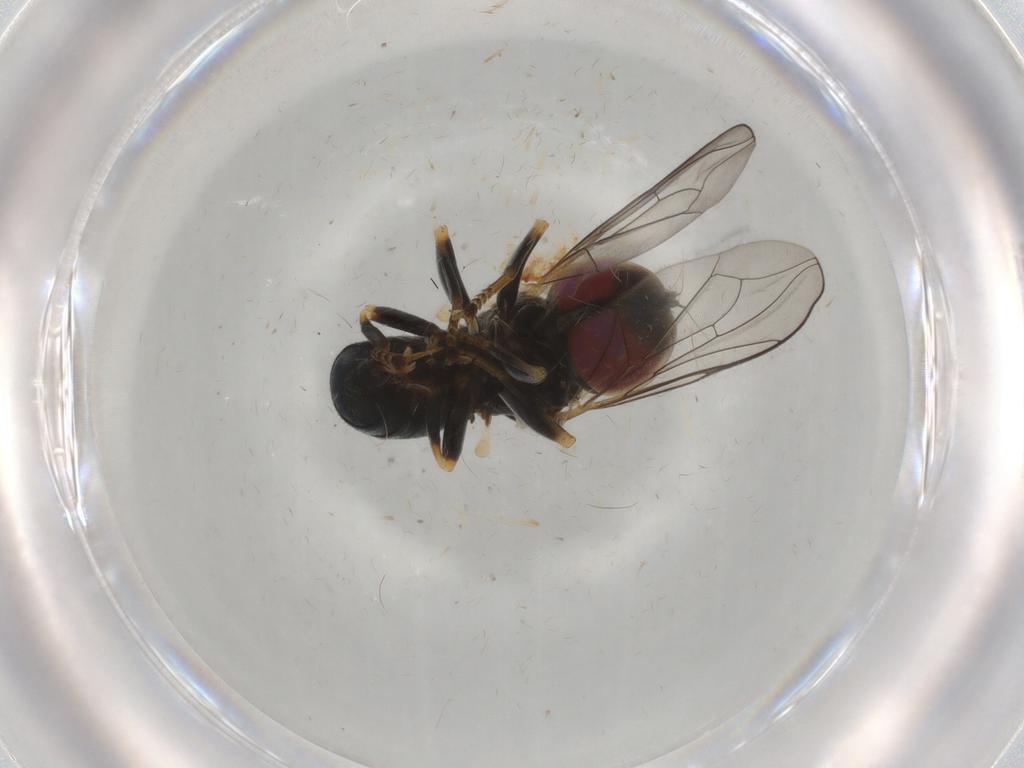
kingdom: Animalia
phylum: Arthropoda
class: Insecta
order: Diptera
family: Pipunculidae
